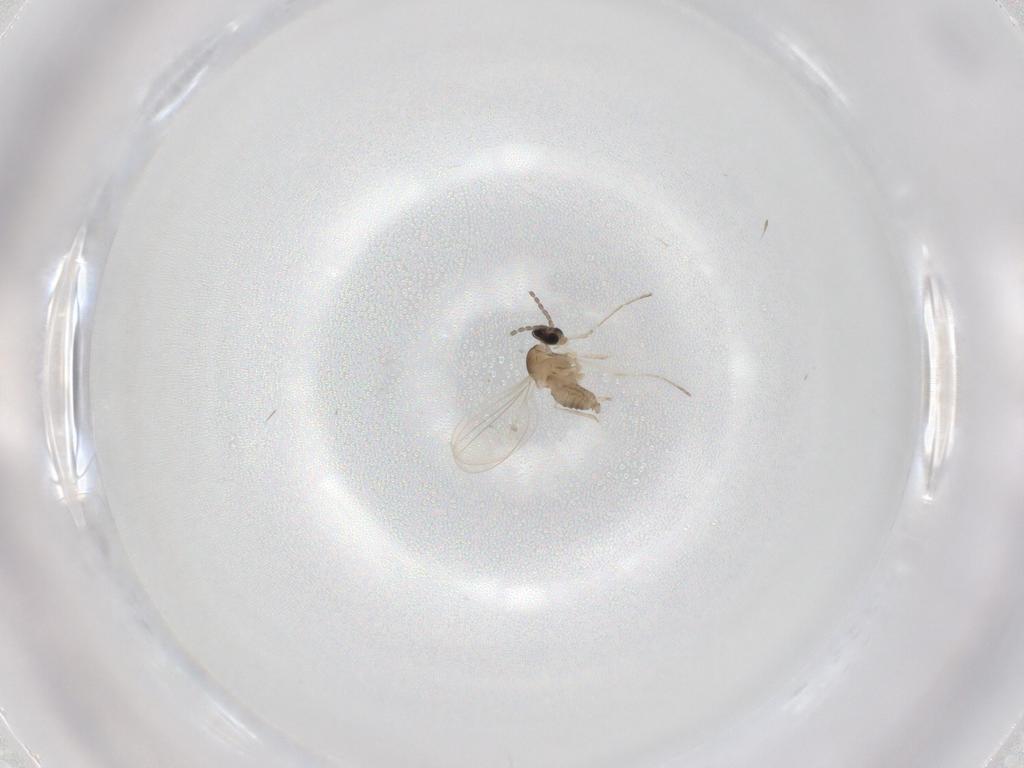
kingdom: Animalia
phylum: Arthropoda
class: Insecta
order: Diptera
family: Cecidomyiidae
